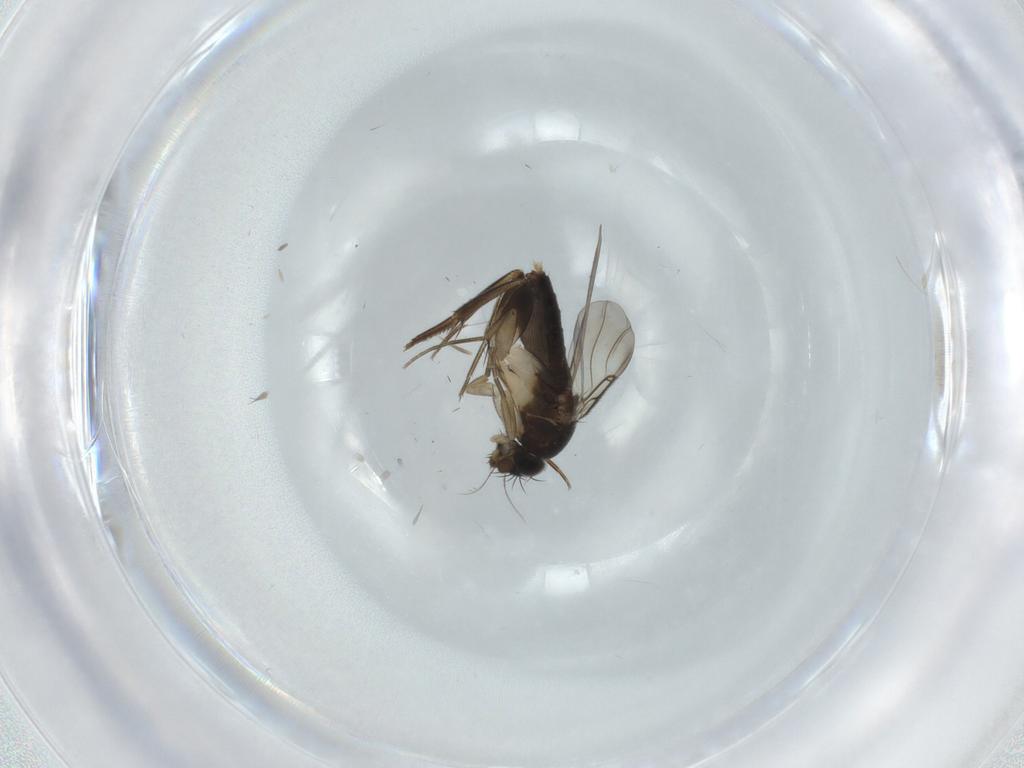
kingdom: Animalia
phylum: Arthropoda
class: Insecta
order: Diptera
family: Phoridae
